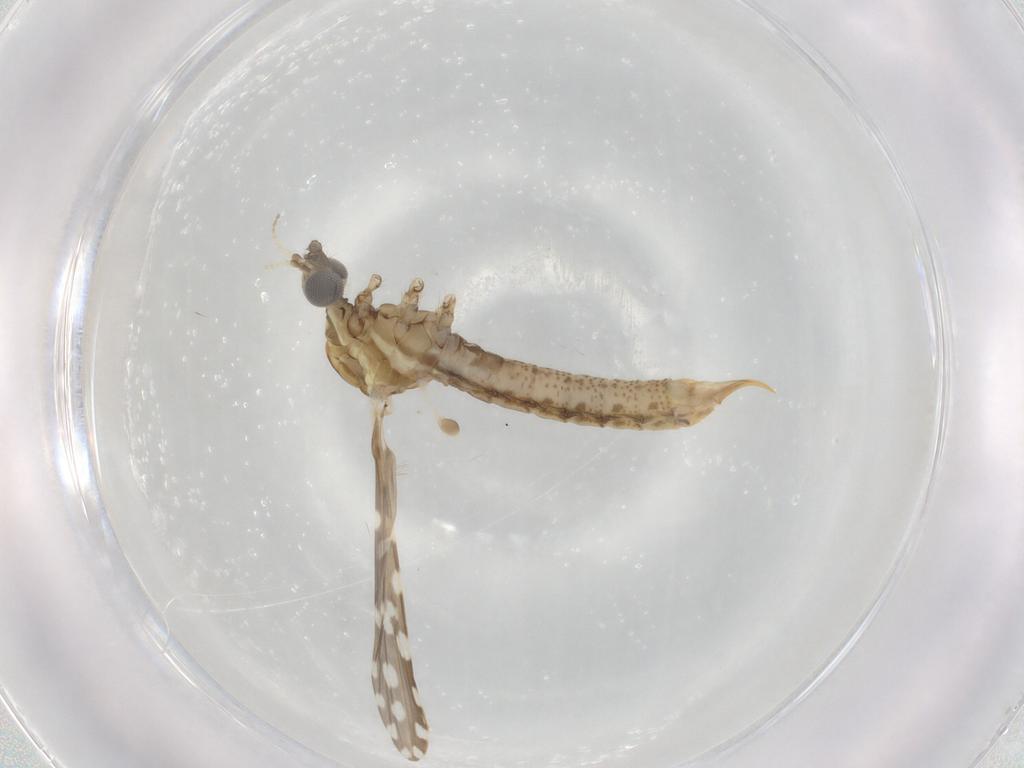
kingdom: Animalia
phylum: Arthropoda
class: Insecta
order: Diptera
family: Limoniidae
